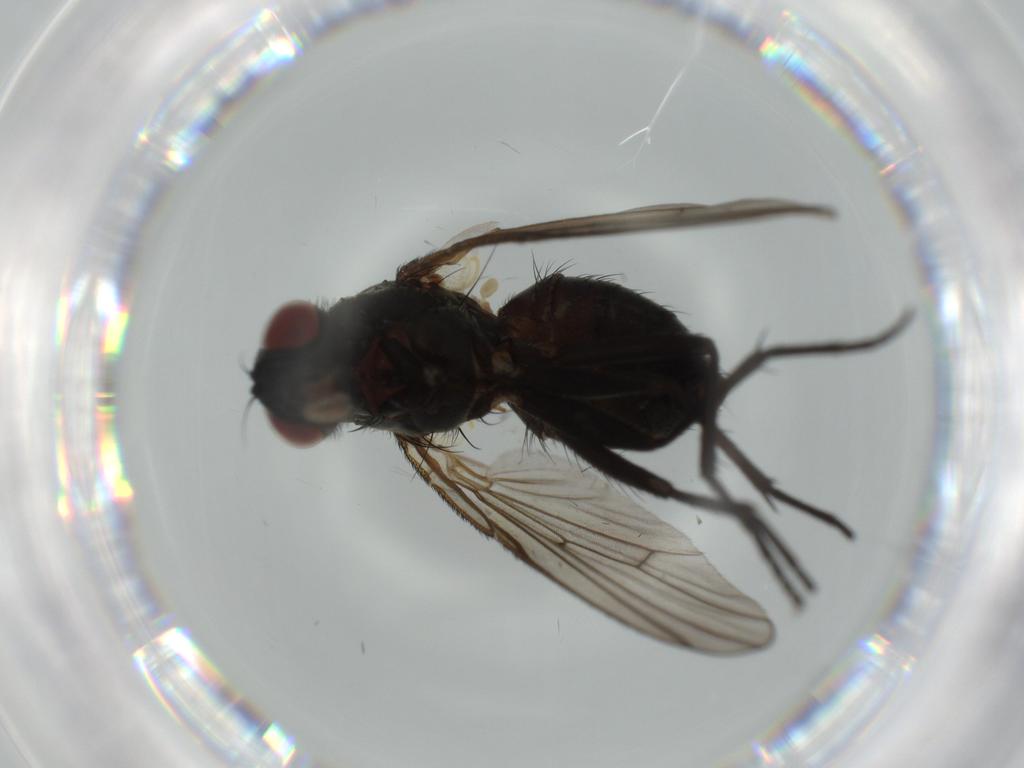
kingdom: Animalia
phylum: Arthropoda
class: Insecta
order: Diptera
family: Muscidae
